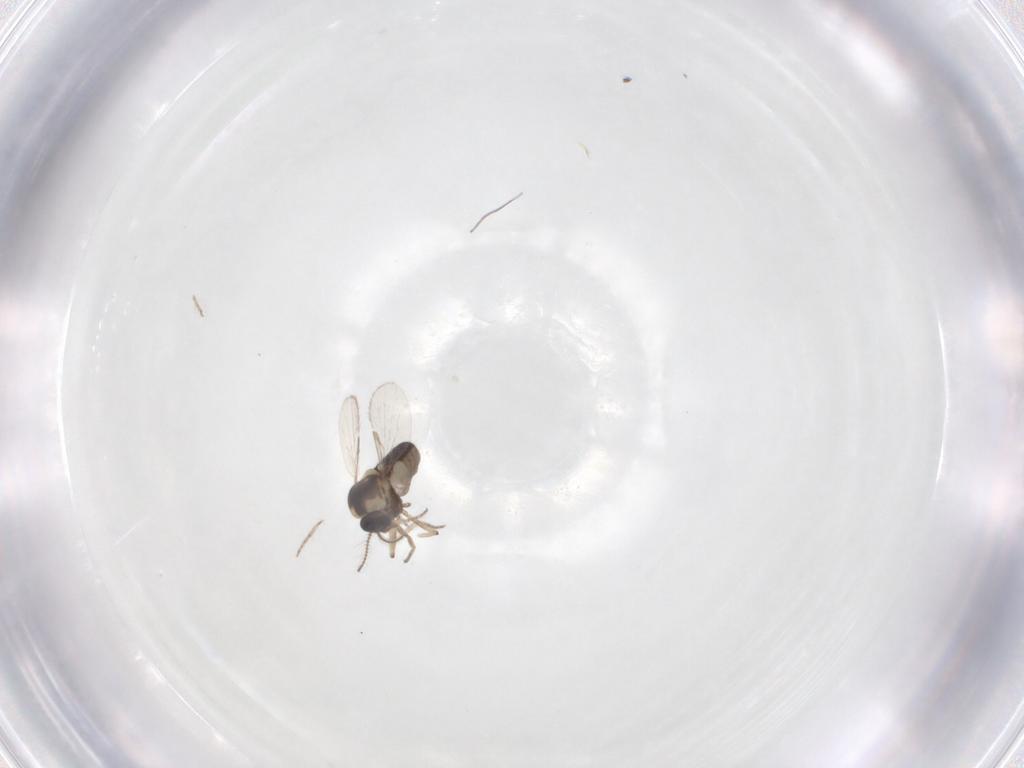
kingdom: Animalia
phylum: Arthropoda
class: Insecta
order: Diptera
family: Ceratopogonidae
